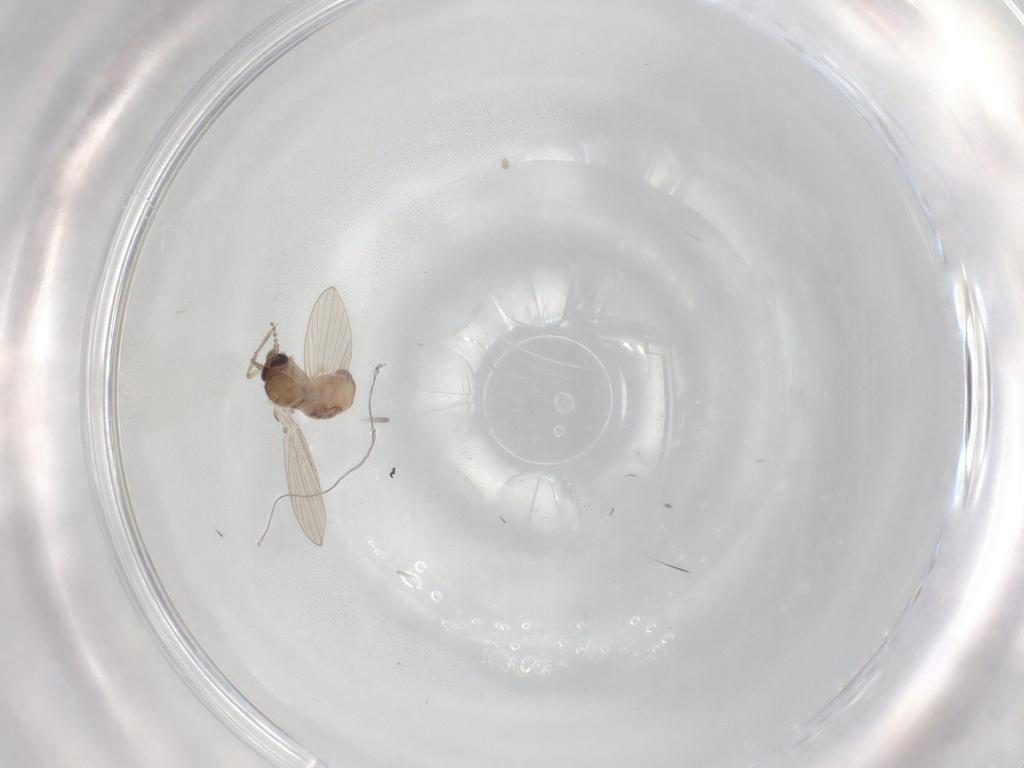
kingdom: Animalia
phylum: Arthropoda
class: Insecta
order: Diptera
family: Psychodidae
